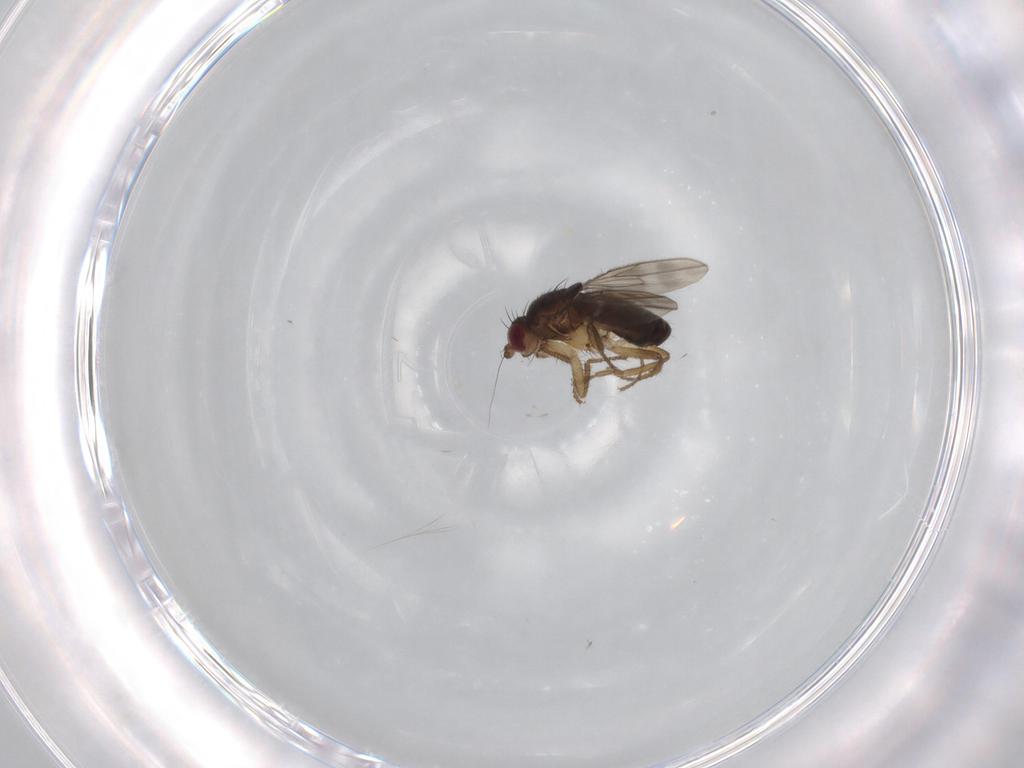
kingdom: Animalia
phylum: Arthropoda
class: Insecta
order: Diptera
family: Sphaeroceridae
